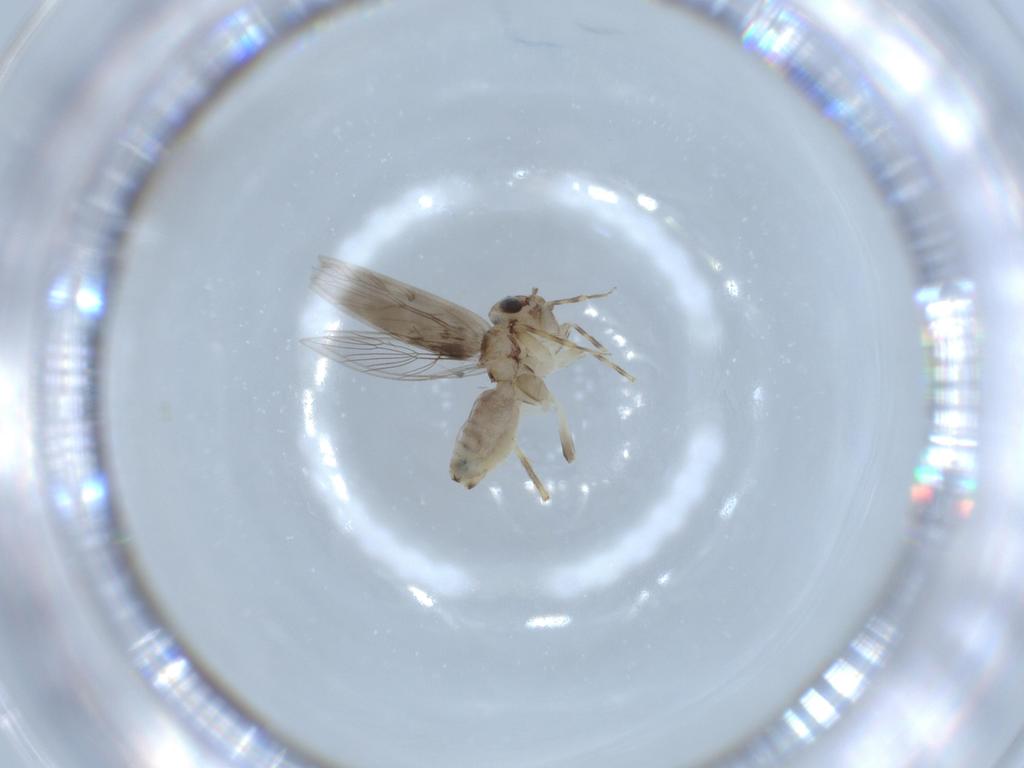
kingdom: Animalia
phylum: Arthropoda
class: Insecta
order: Psocodea
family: Lepidopsocidae
